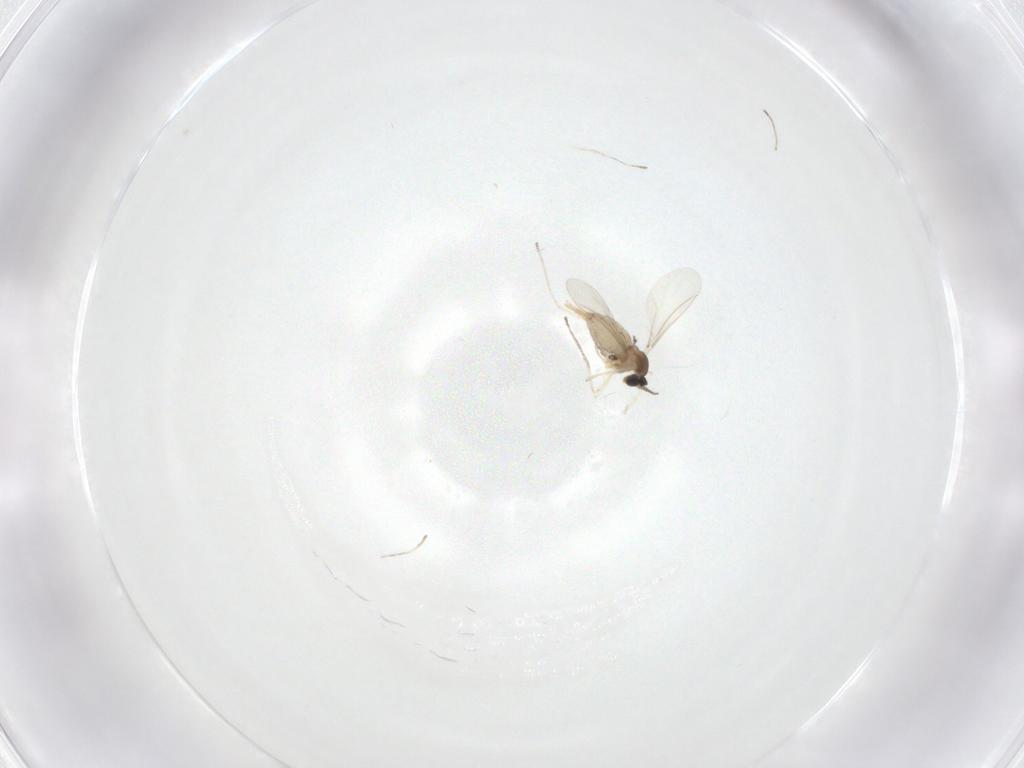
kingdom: Animalia
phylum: Arthropoda
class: Insecta
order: Diptera
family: Cecidomyiidae
